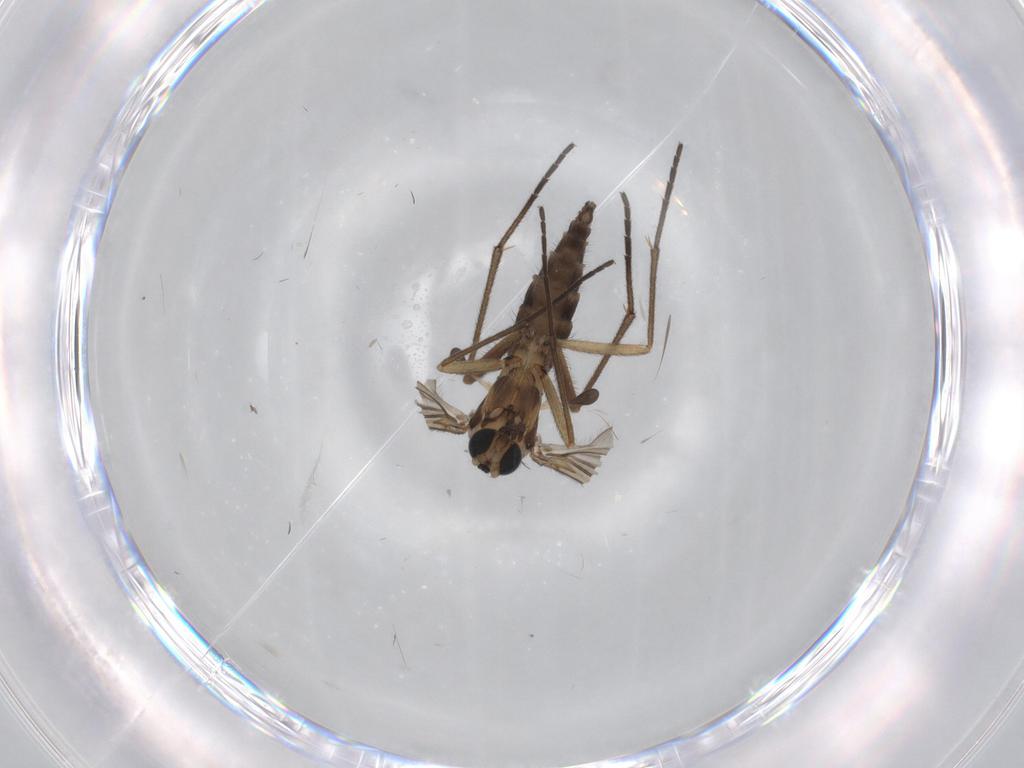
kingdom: Animalia
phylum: Arthropoda
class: Insecta
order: Diptera
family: Sciaridae
